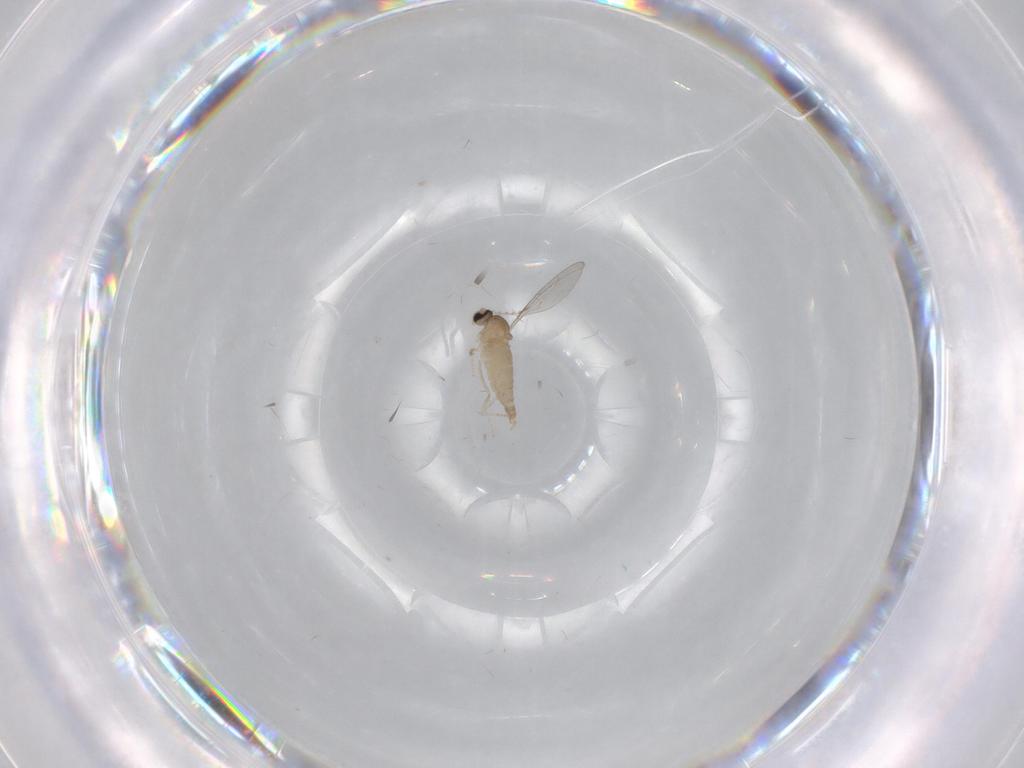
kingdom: Animalia
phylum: Arthropoda
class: Insecta
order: Diptera
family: Cecidomyiidae
